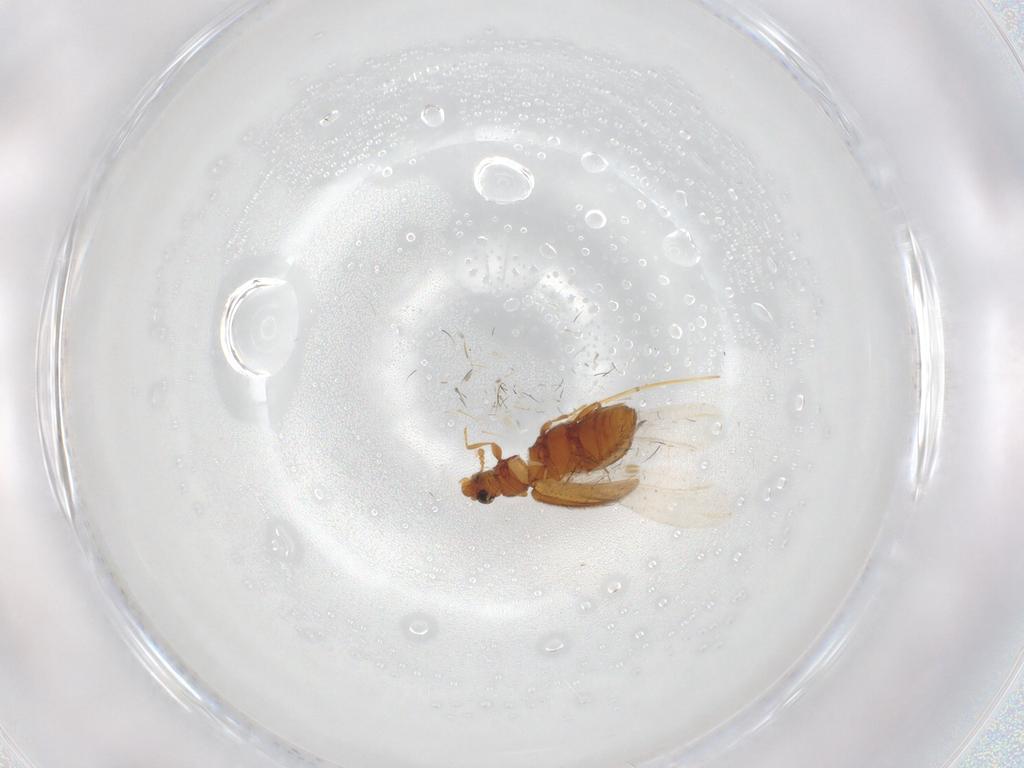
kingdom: Animalia
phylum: Arthropoda
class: Insecta
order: Coleoptera
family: Latridiidae
